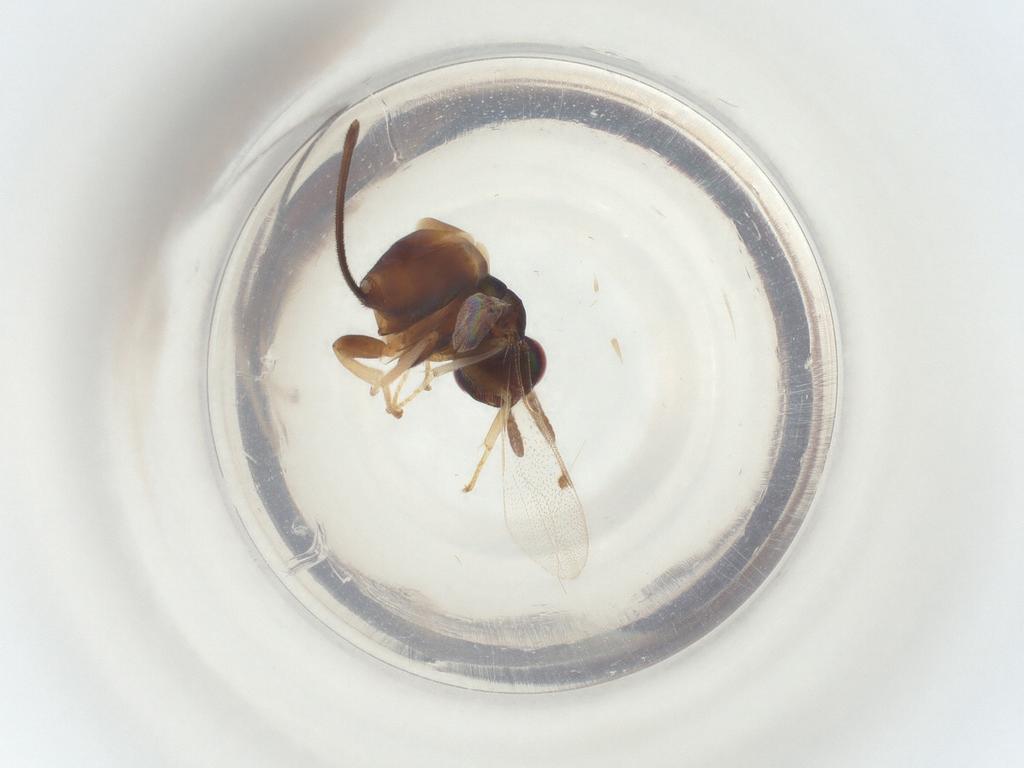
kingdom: Animalia
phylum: Arthropoda
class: Insecta
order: Hymenoptera
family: Torymidae
